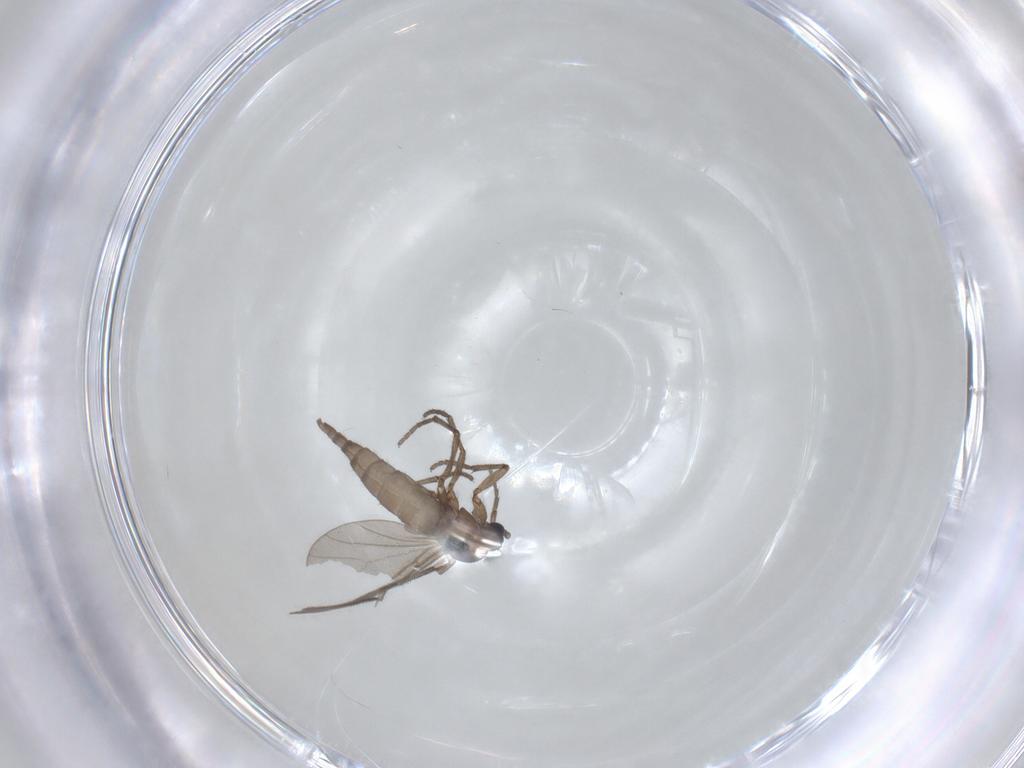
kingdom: Animalia
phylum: Arthropoda
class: Insecta
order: Diptera
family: Sciaridae
